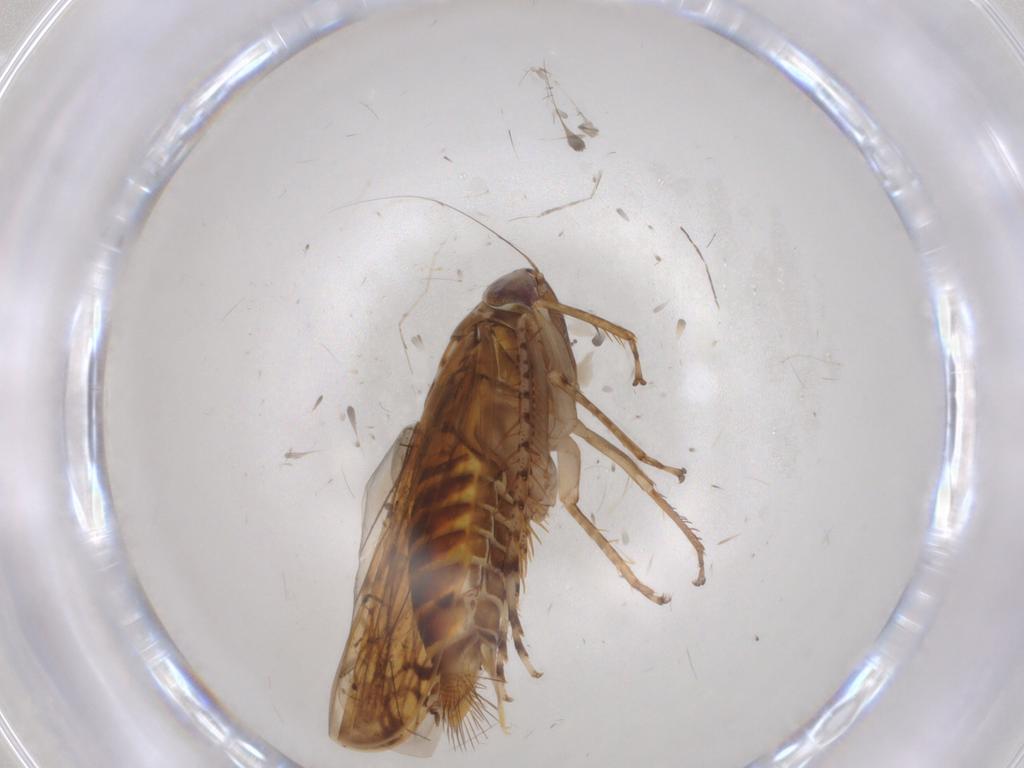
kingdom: Animalia
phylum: Arthropoda
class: Insecta
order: Hemiptera
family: Cicadellidae
